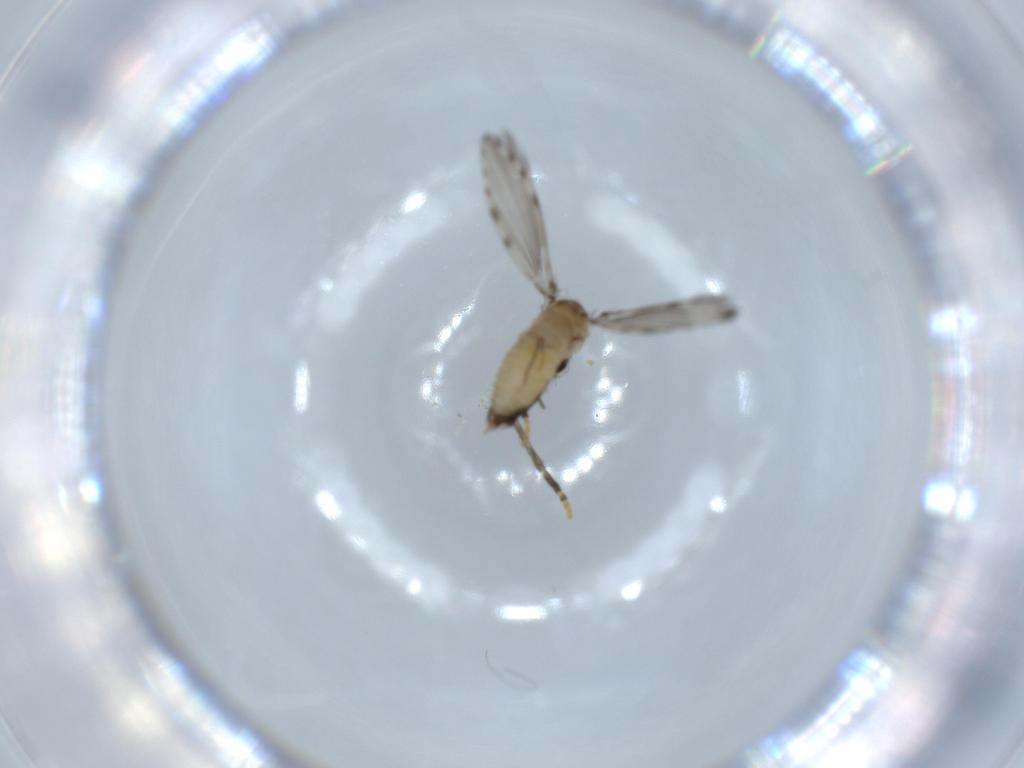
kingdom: Animalia
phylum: Arthropoda
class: Insecta
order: Diptera
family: Psychodidae
